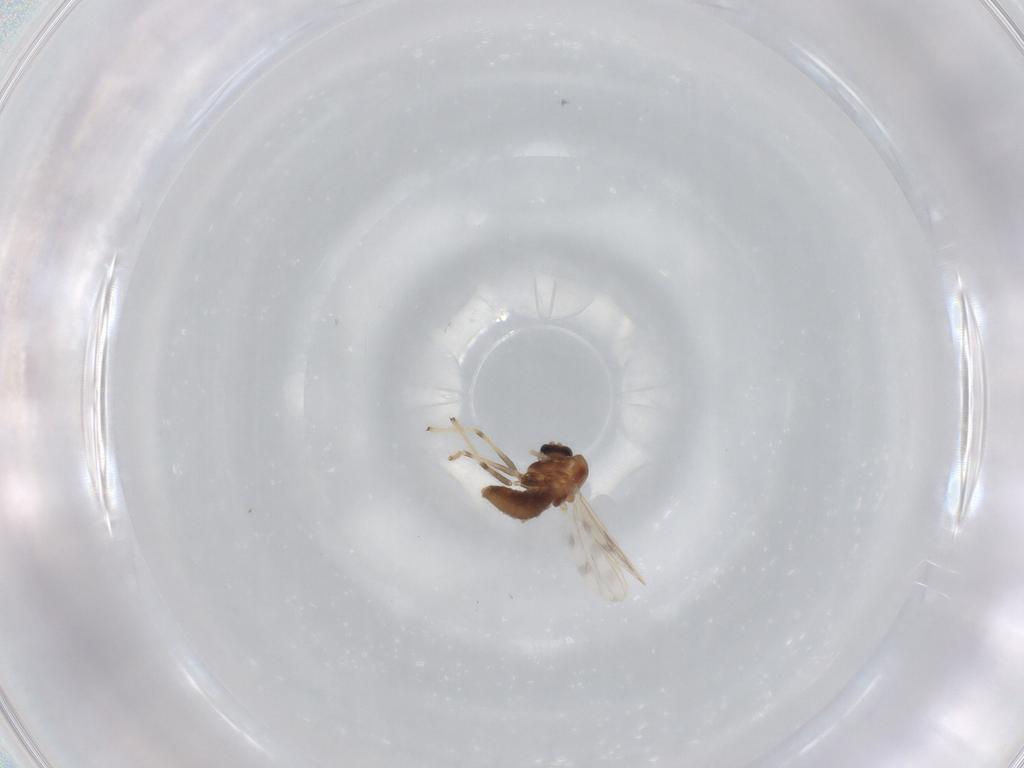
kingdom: Animalia
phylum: Arthropoda
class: Insecta
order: Diptera
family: Chironomidae
